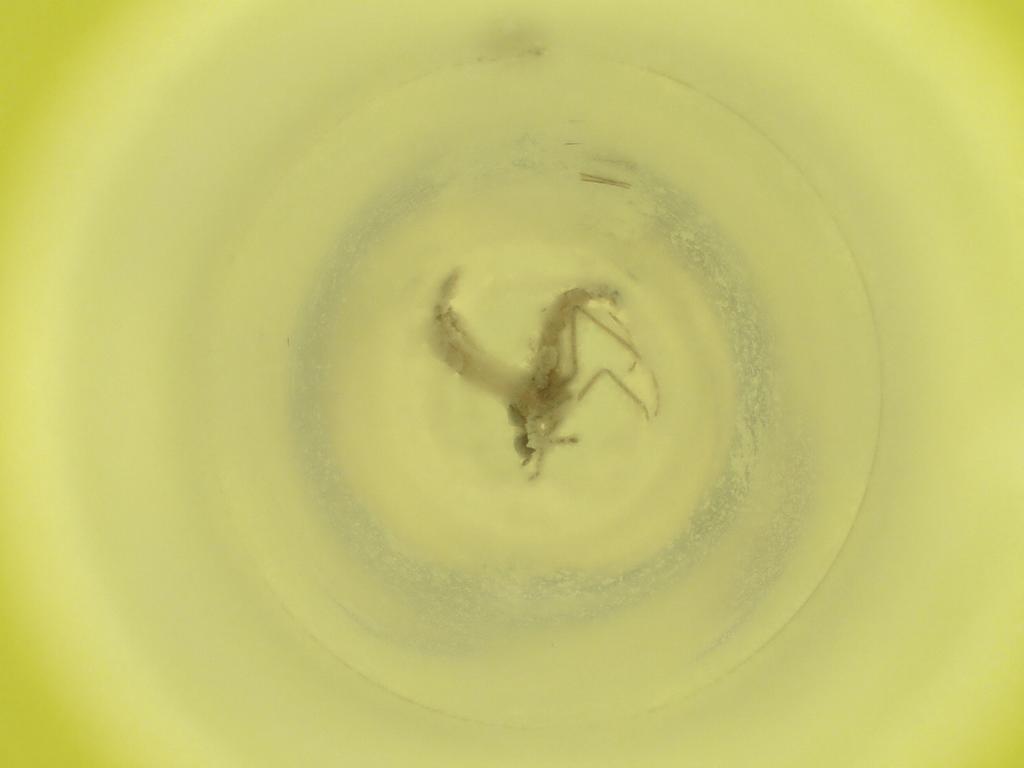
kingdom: Animalia
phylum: Arthropoda
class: Insecta
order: Diptera
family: Cecidomyiidae
